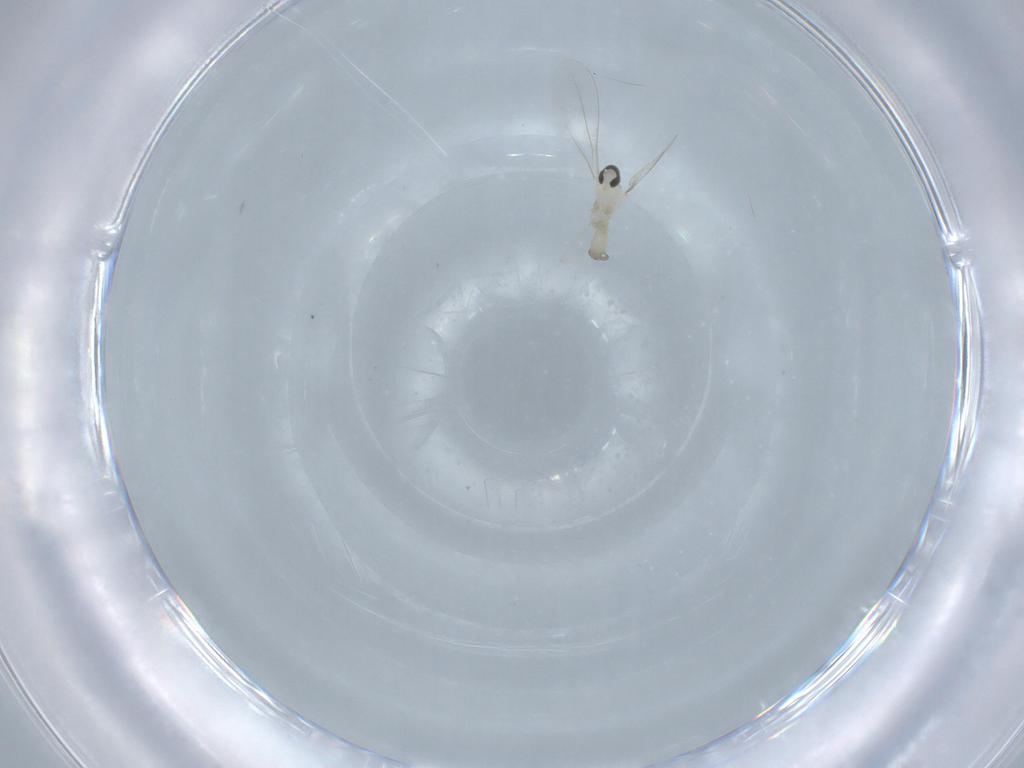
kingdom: Animalia
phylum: Arthropoda
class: Insecta
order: Diptera
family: Cecidomyiidae
